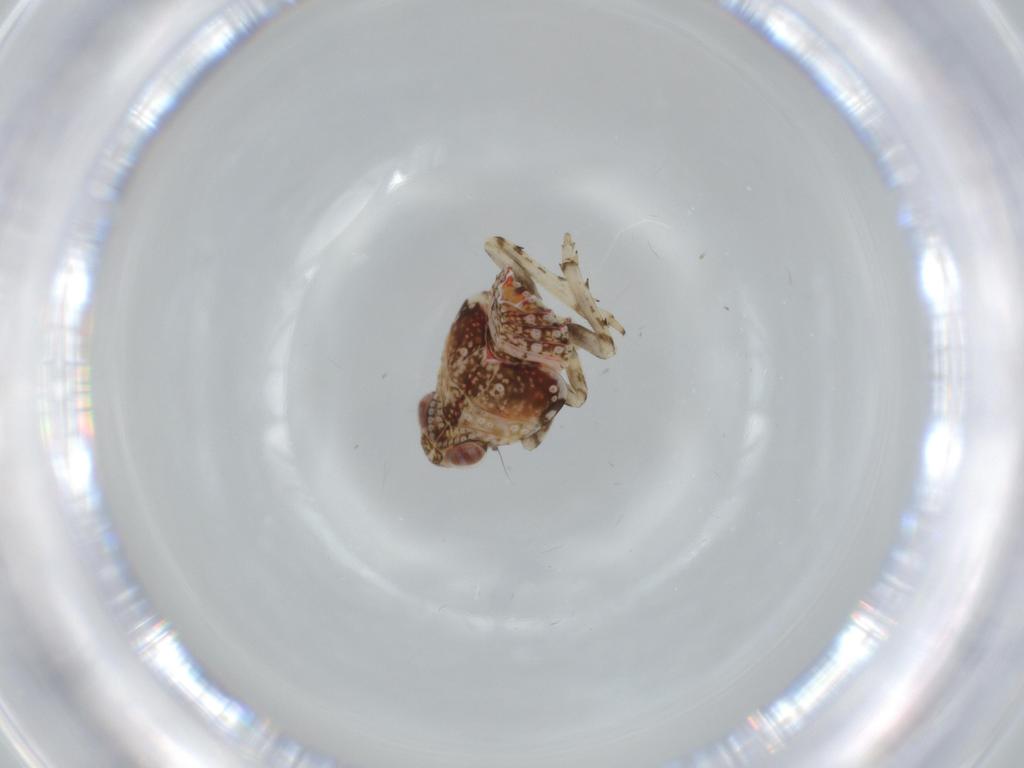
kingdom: Animalia
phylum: Arthropoda
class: Insecta
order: Hemiptera
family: Issidae
